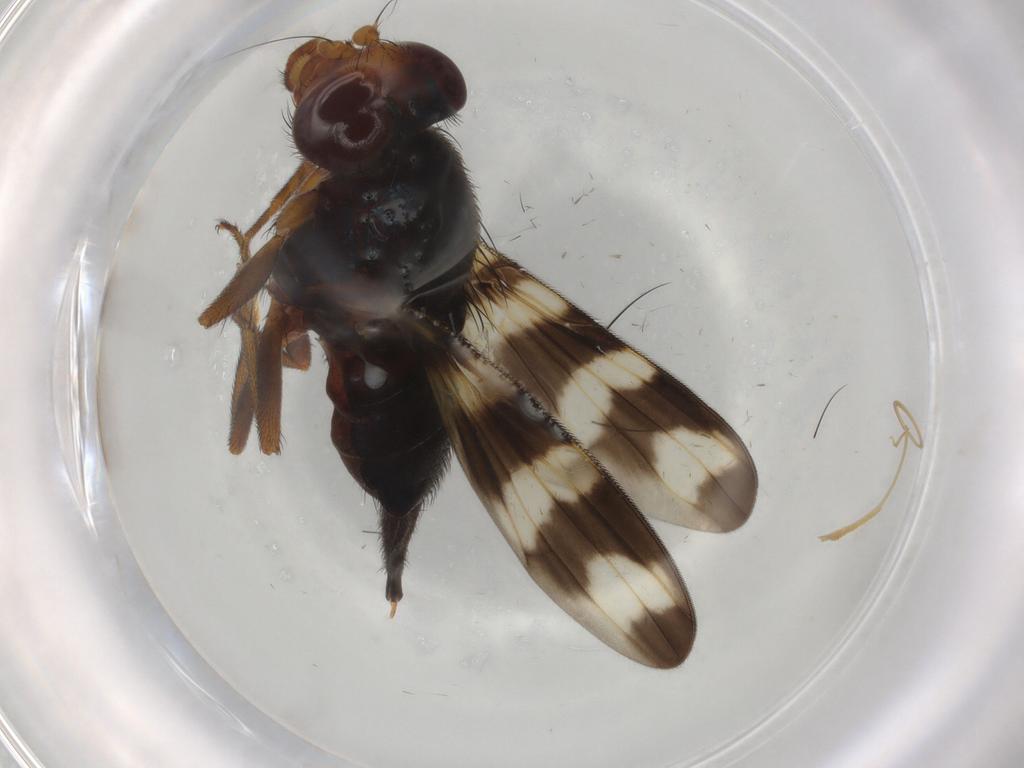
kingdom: Animalia
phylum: Arthropoda
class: Insecta
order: Diptera
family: Ulidiidae
